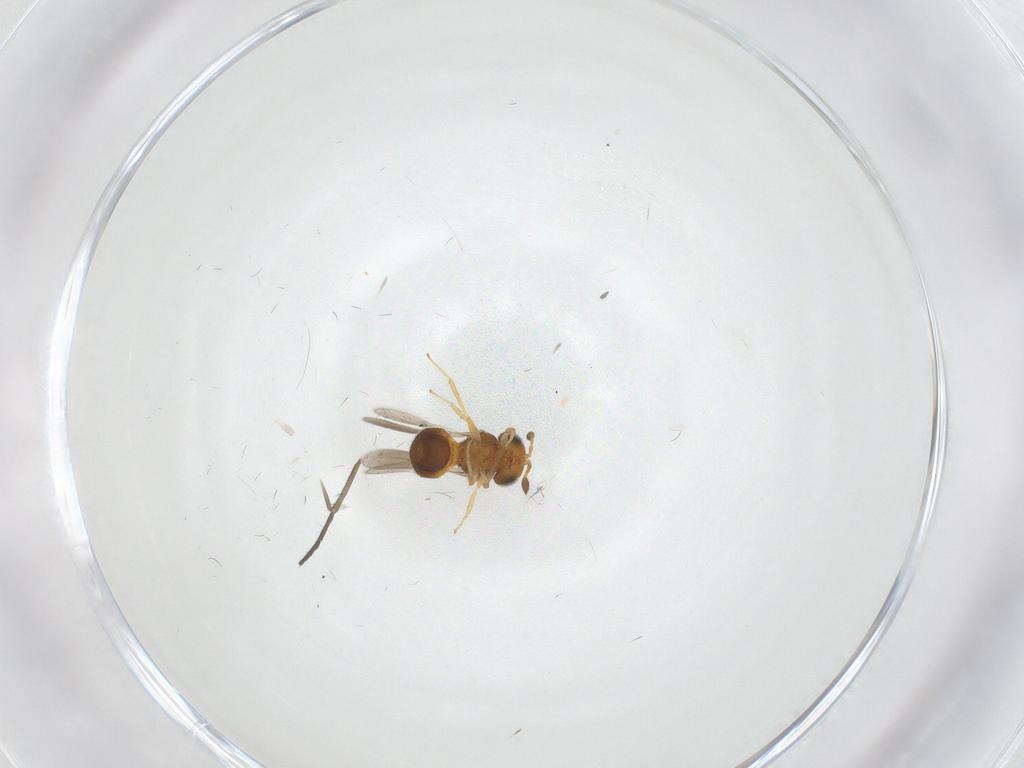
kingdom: Animalia
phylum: Arthropoda
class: Insecta
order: Hymenoptera
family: Scelionidae
